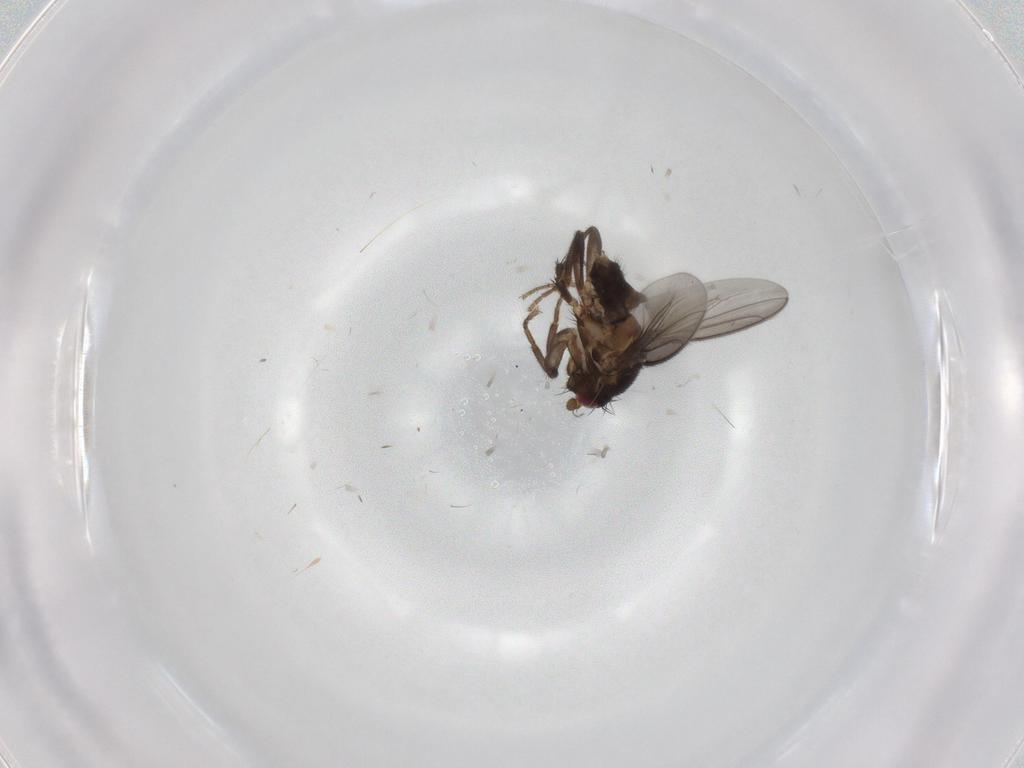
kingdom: Animalia
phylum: Arthropoda
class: Insecta
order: Diptera
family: Sphaeroceridae
